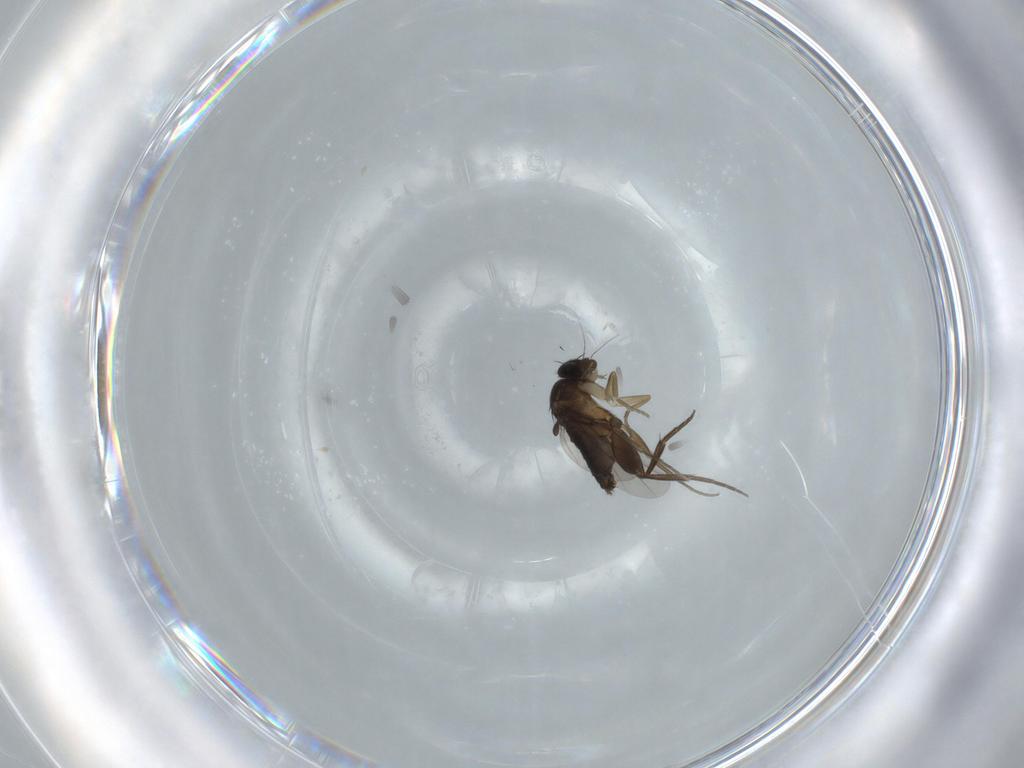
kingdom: Animalia
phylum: Arthropoda
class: Insecta
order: Diptera
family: Phoridae
